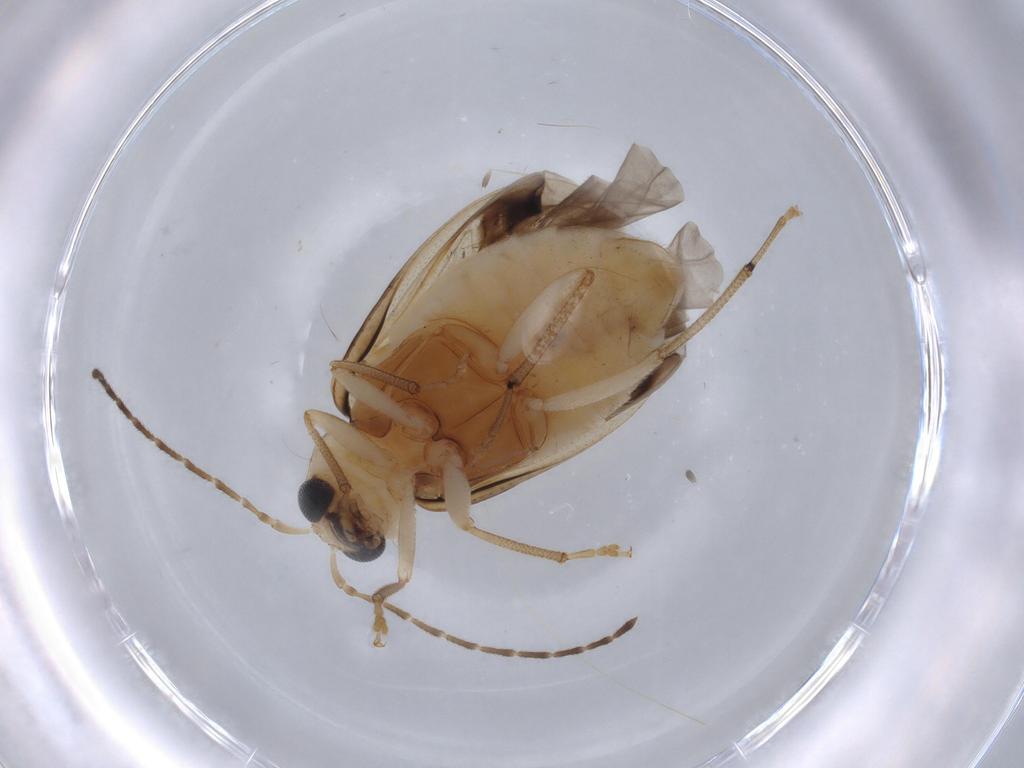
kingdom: Animalia
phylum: Arthropoda
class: Insecta
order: Coleoptera
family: Chrysomelidae
